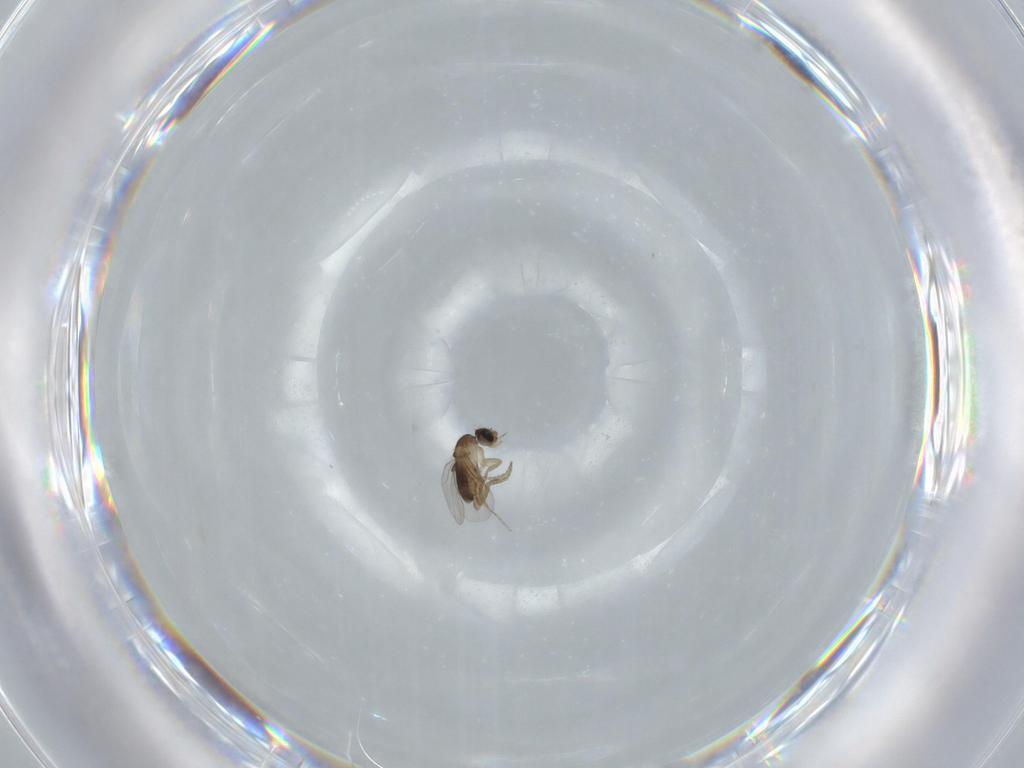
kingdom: Animalia
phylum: Arthropoda
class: Insecta
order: Diptera
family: Phoridae
